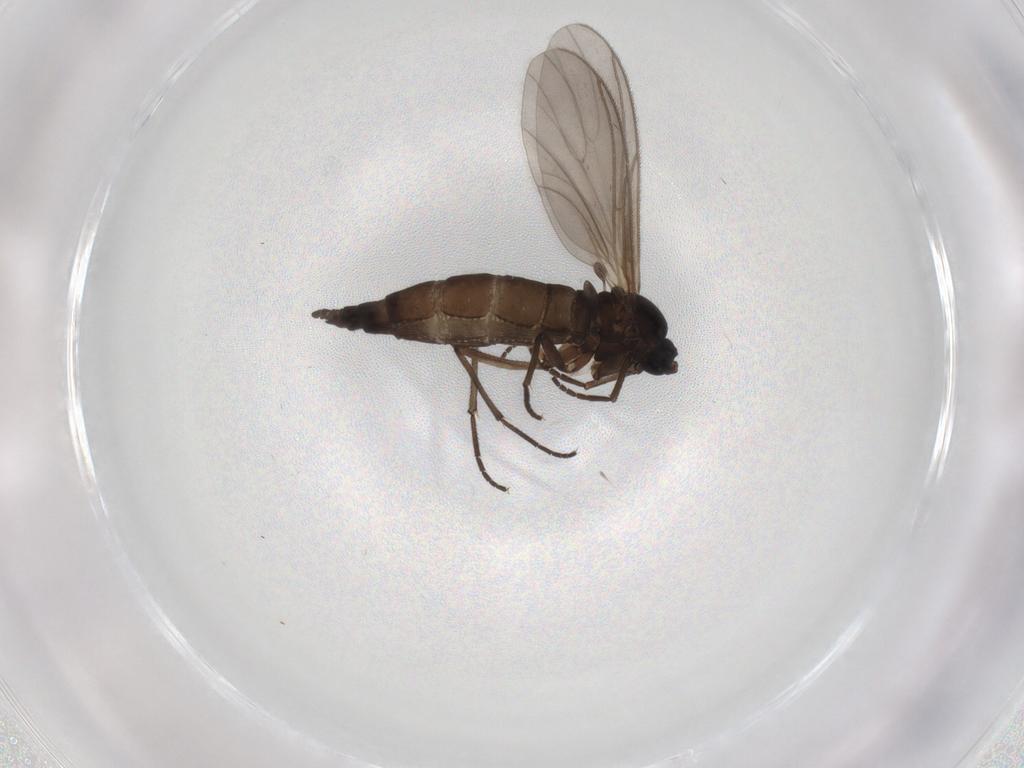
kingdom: Animalia
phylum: Arthropoda
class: Insecta
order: Diptera
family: Sciaridae
